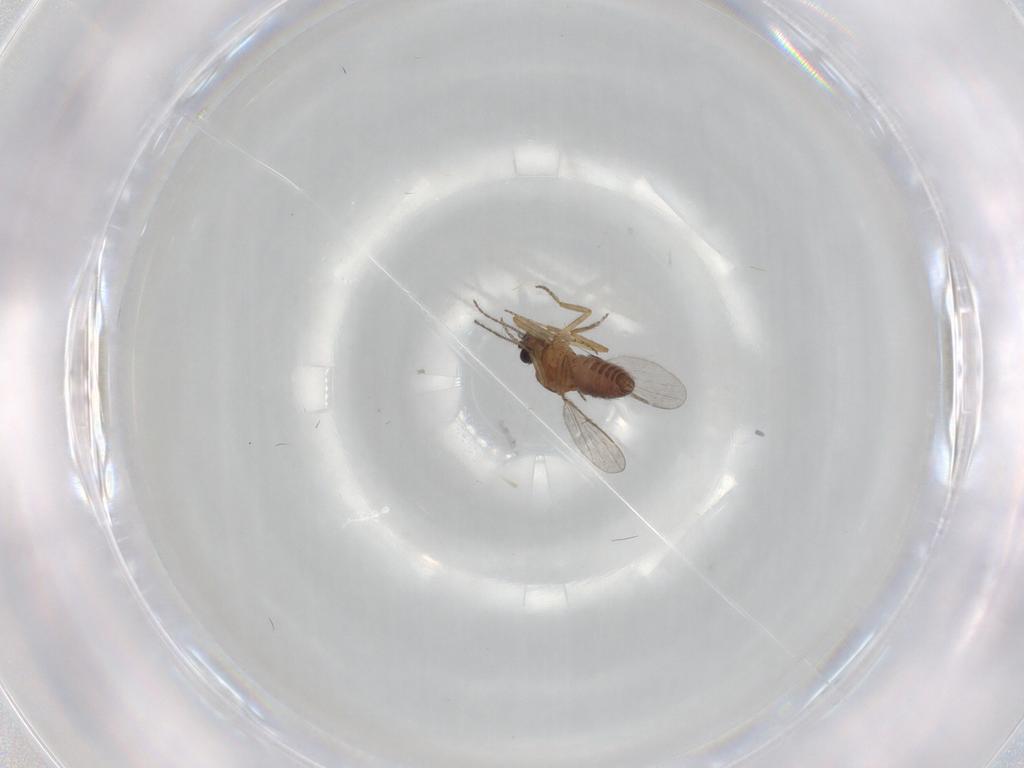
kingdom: Animalia
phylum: Arthropoda
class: Insecta
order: Diptera
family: Ceratopogonidae
